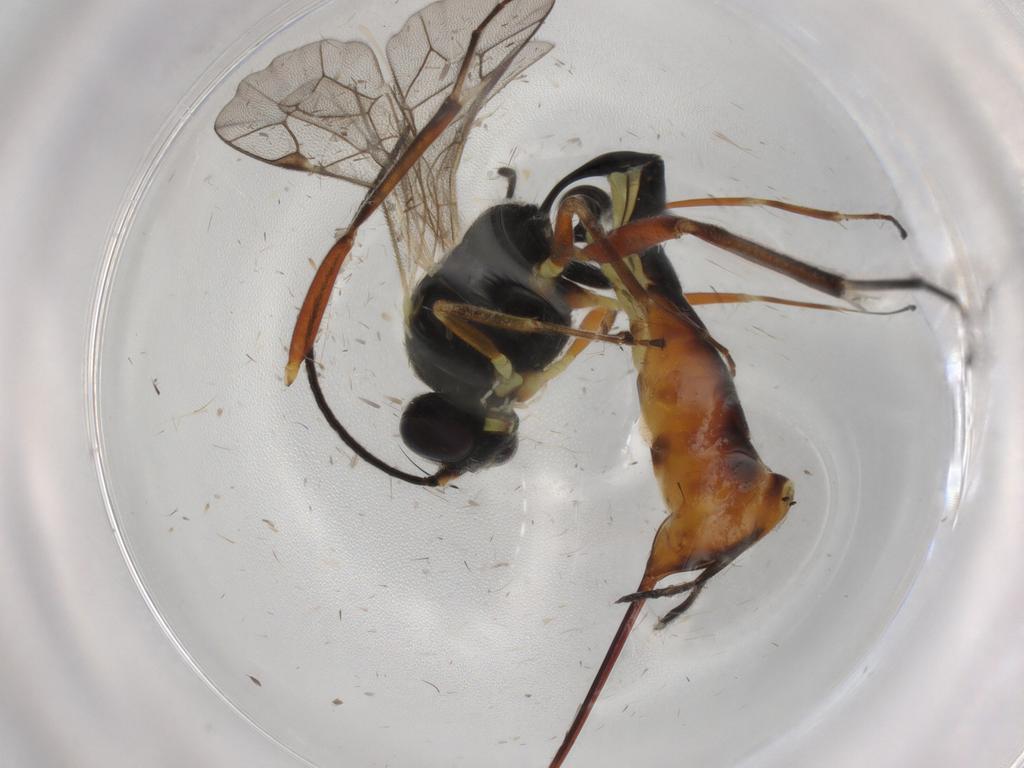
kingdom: Animalia
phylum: Arthropoda
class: Insecta
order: Hymenoptera
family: Ichneumonidae
